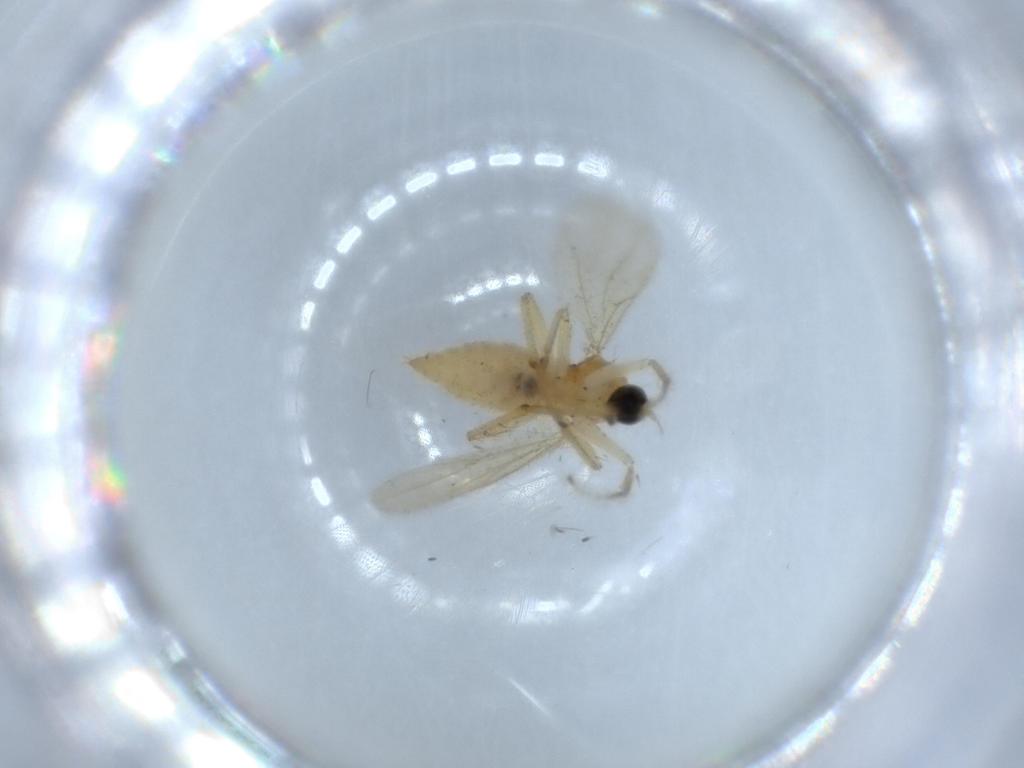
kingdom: Animalia
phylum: Arthropoda
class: Insecta
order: Diptera
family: Hybotidae
